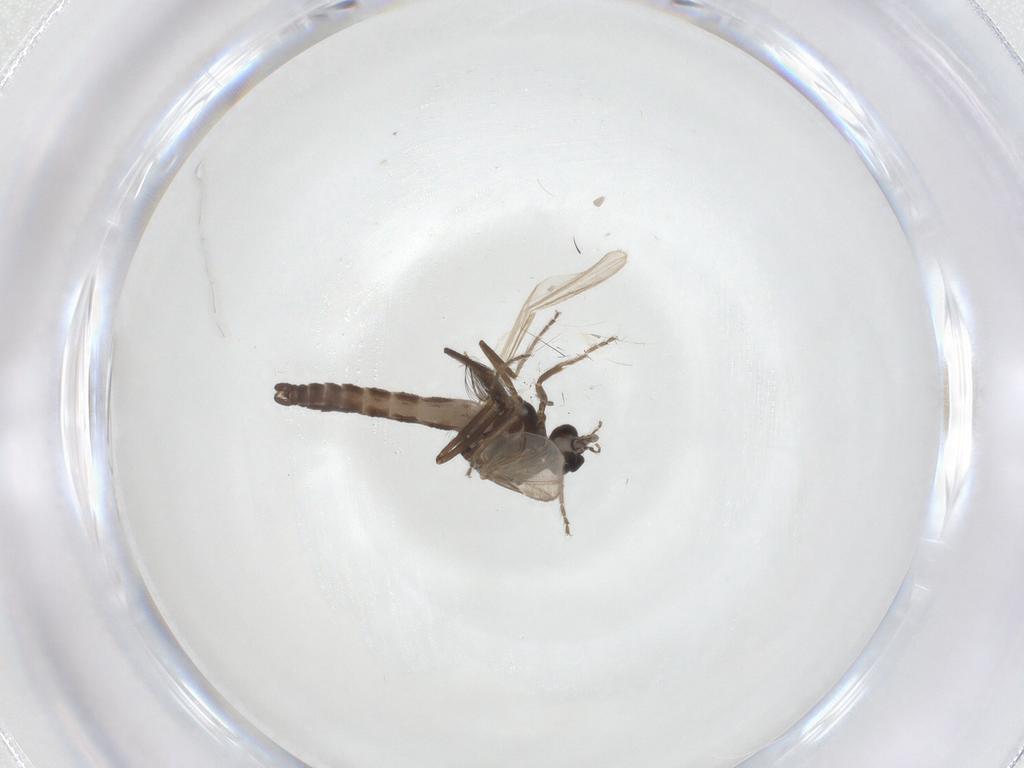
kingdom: Animalia
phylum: Arthropoda
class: Insecta
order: Diptera
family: Ceratopogonidae
